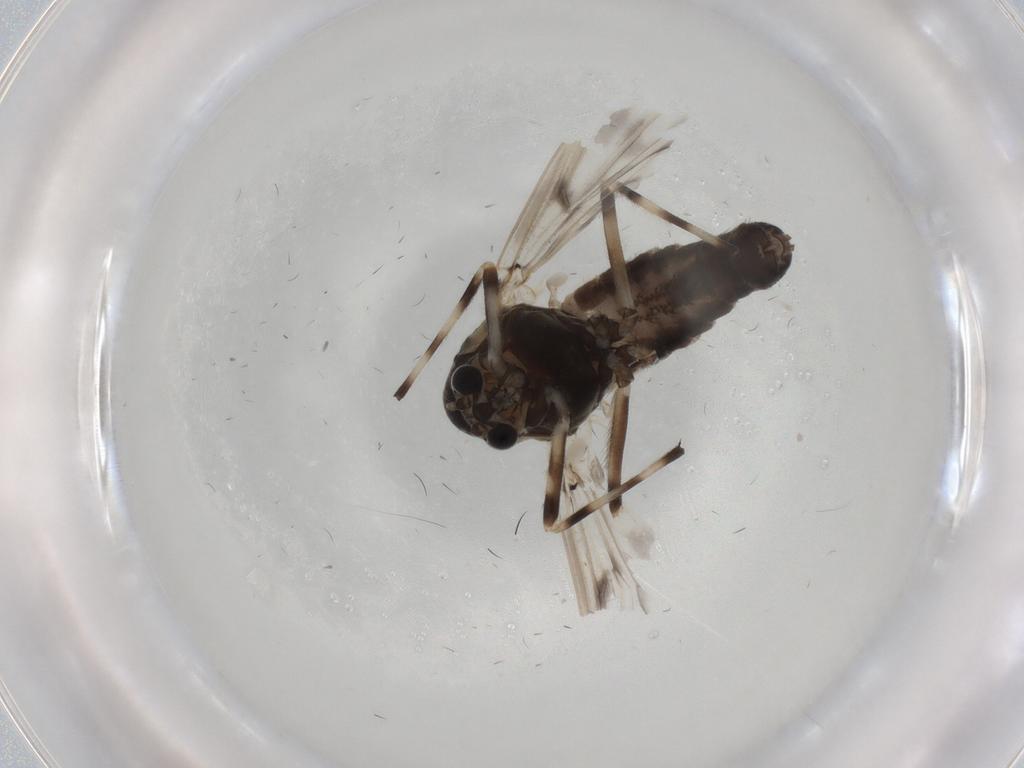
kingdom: Animalia
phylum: Arthropoda
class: Insecta
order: Diptera
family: Chironomidae
